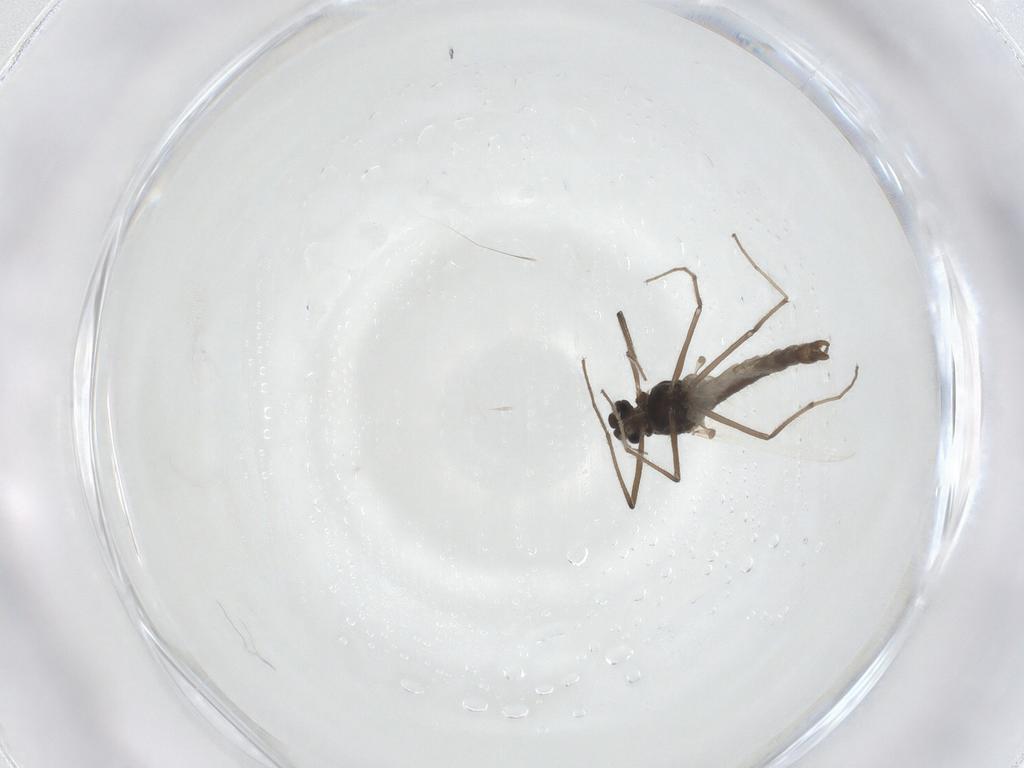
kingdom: Animalia
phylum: Arthropoda
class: Insecta
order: Diptera
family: Chironomidae
